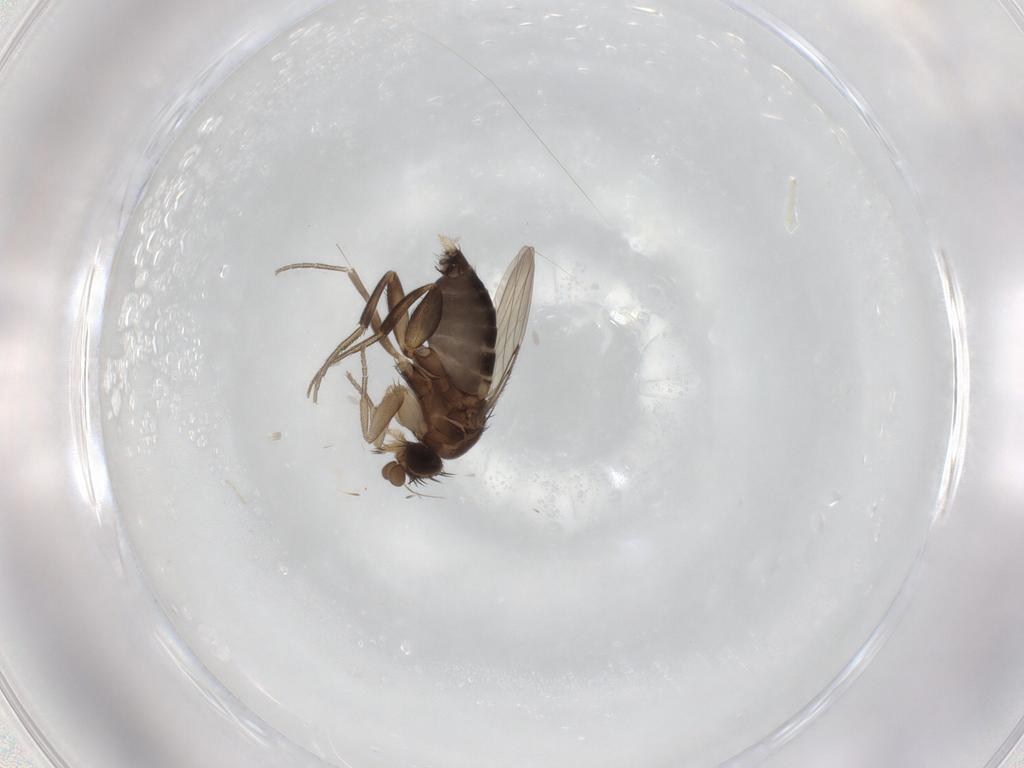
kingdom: Animalia
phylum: Arthropoda
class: Insecta
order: Diptera
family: Phoridae
